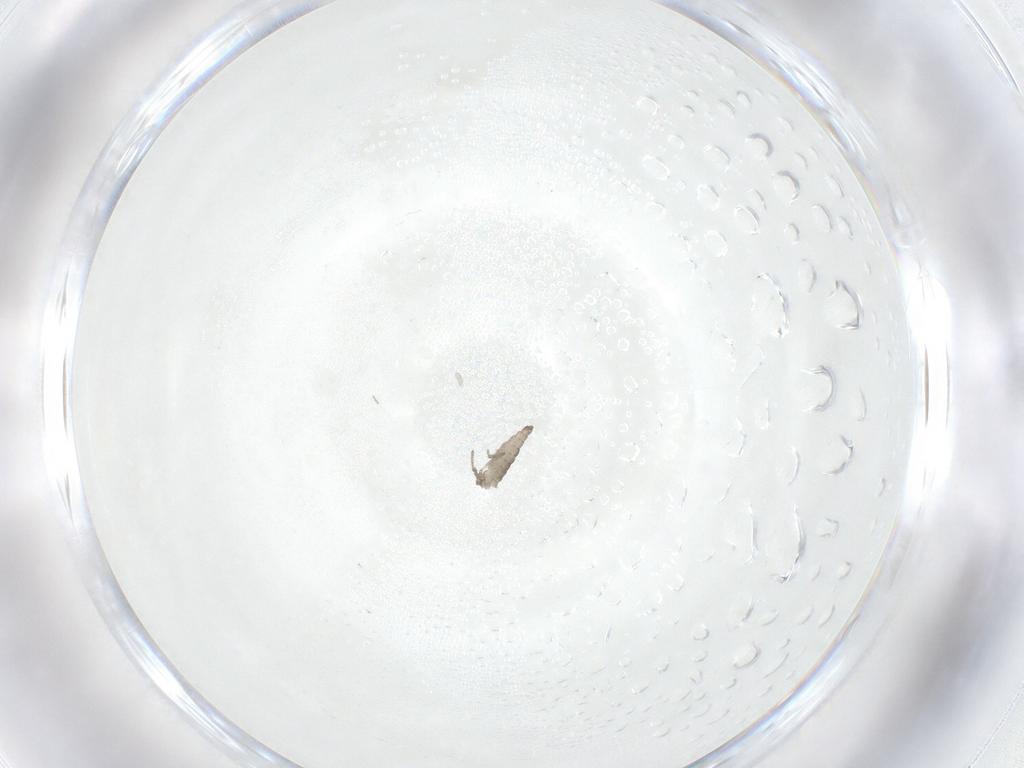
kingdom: Animalia
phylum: Arthropoda
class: Insecta
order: Diptera
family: Cecidomyiidae
